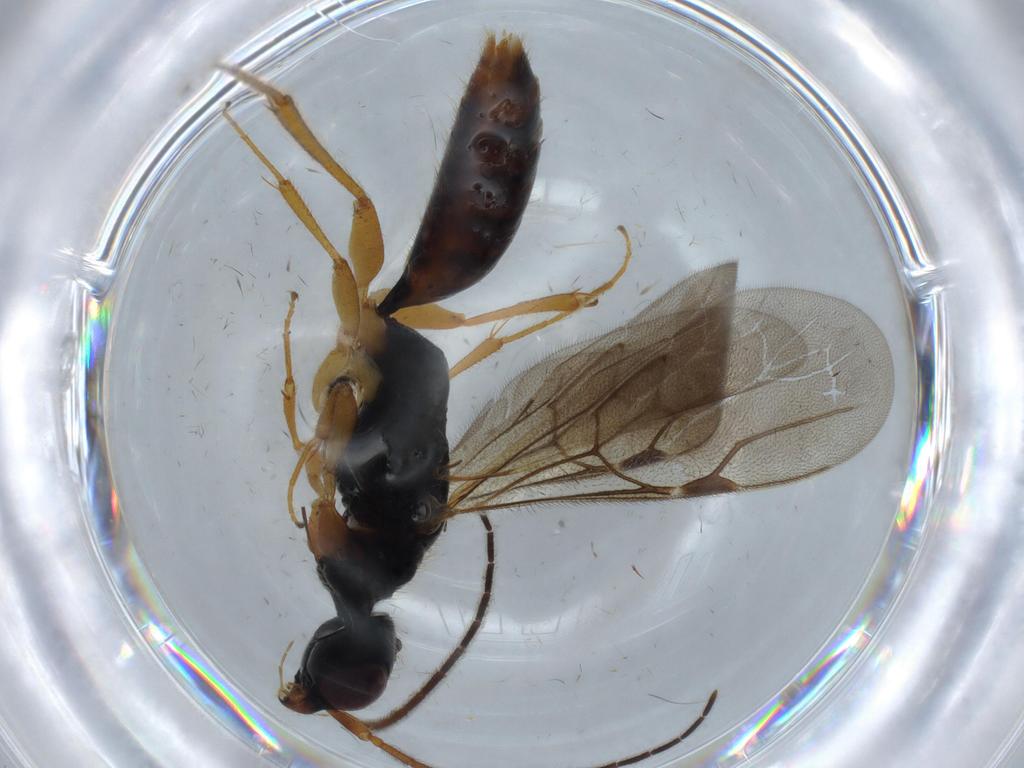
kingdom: Animalia
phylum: Arthropoda
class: Insecta
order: Hymenoptera
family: Bethylidae
